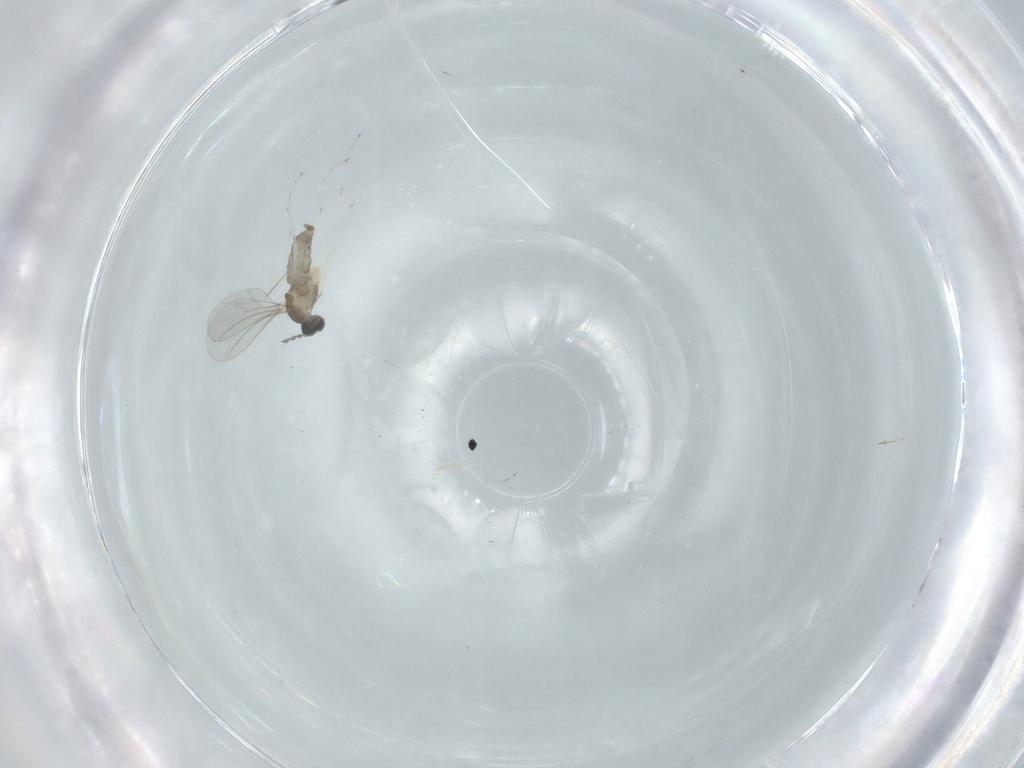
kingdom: Animalia
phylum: Arthropoda
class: Insecta
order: Diptera
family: Cecidomyiidae
